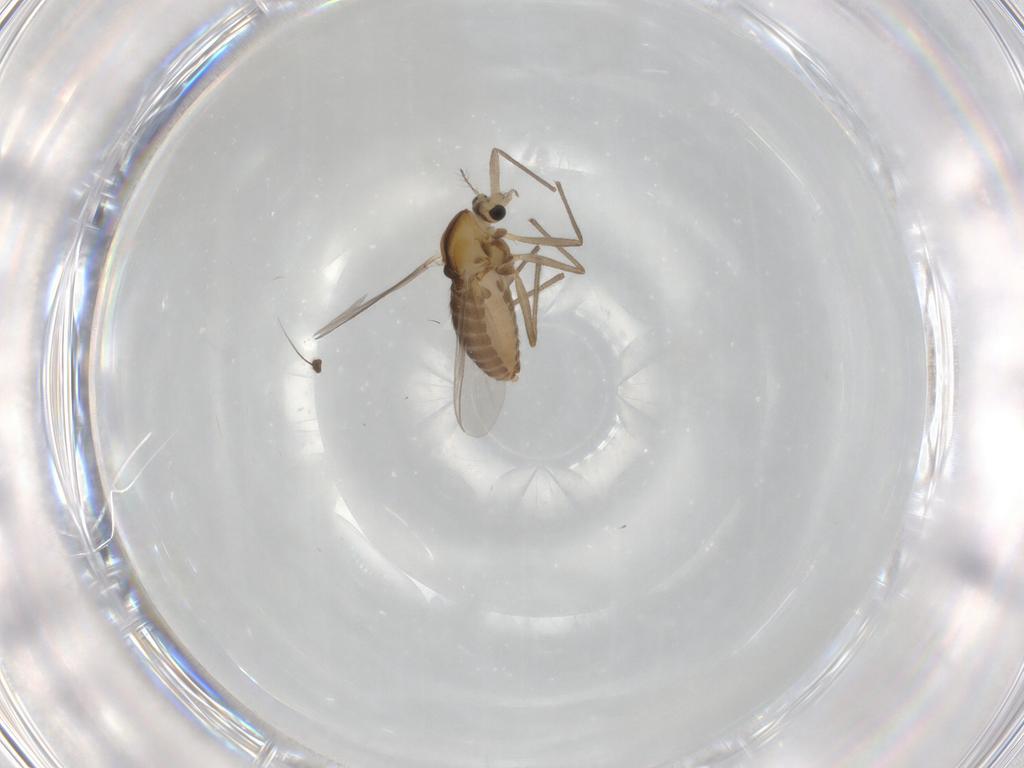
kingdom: Animalia
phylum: Arthropoda
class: Insecta
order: Diptera
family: Chironomidae
